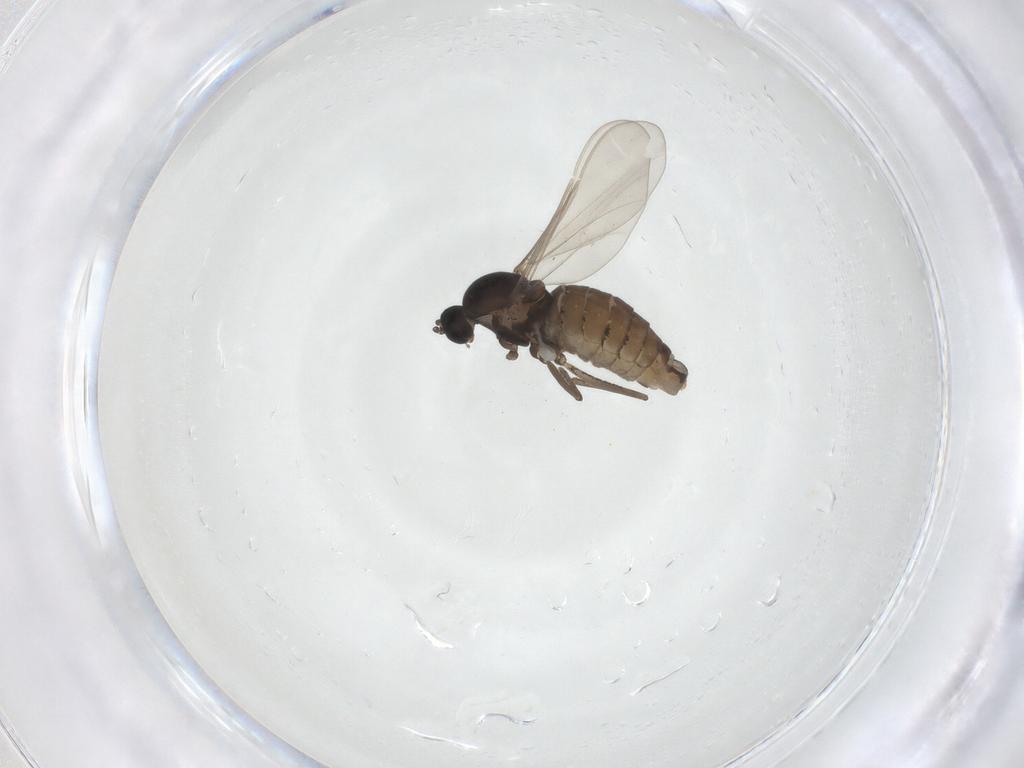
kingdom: Animalia
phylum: Arthropoda
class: Insecta
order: Diptera
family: Cecidomyiidae
